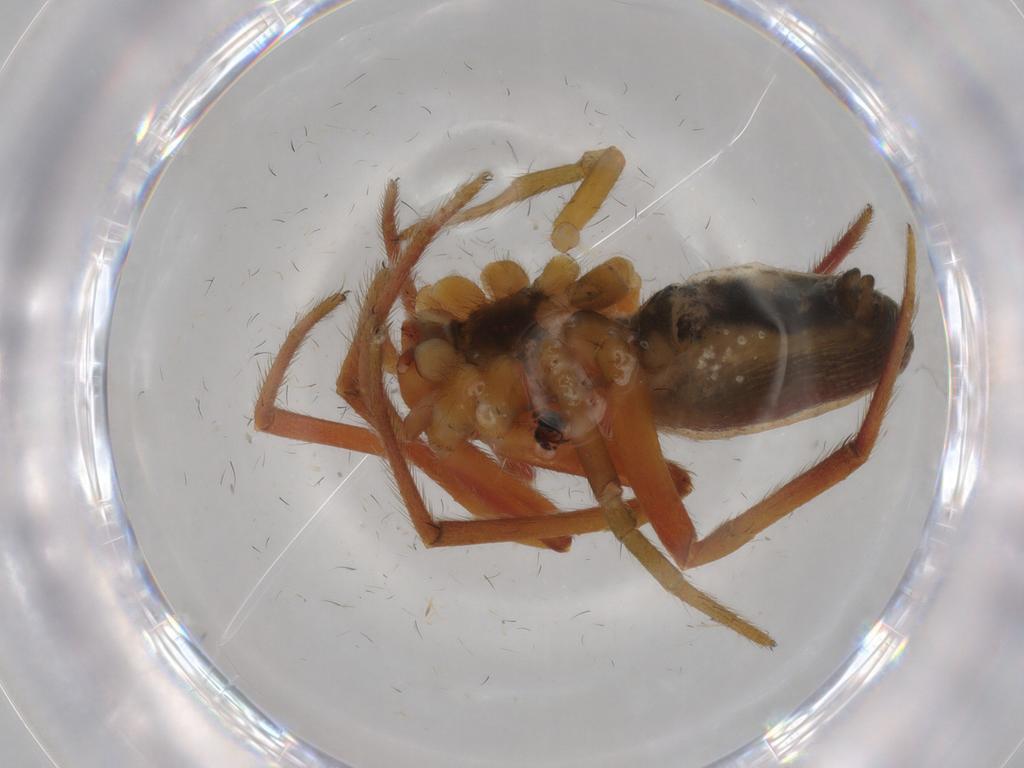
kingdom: Animalia
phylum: Arthropoda
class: Arachnida
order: Araneae
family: Araneidae
